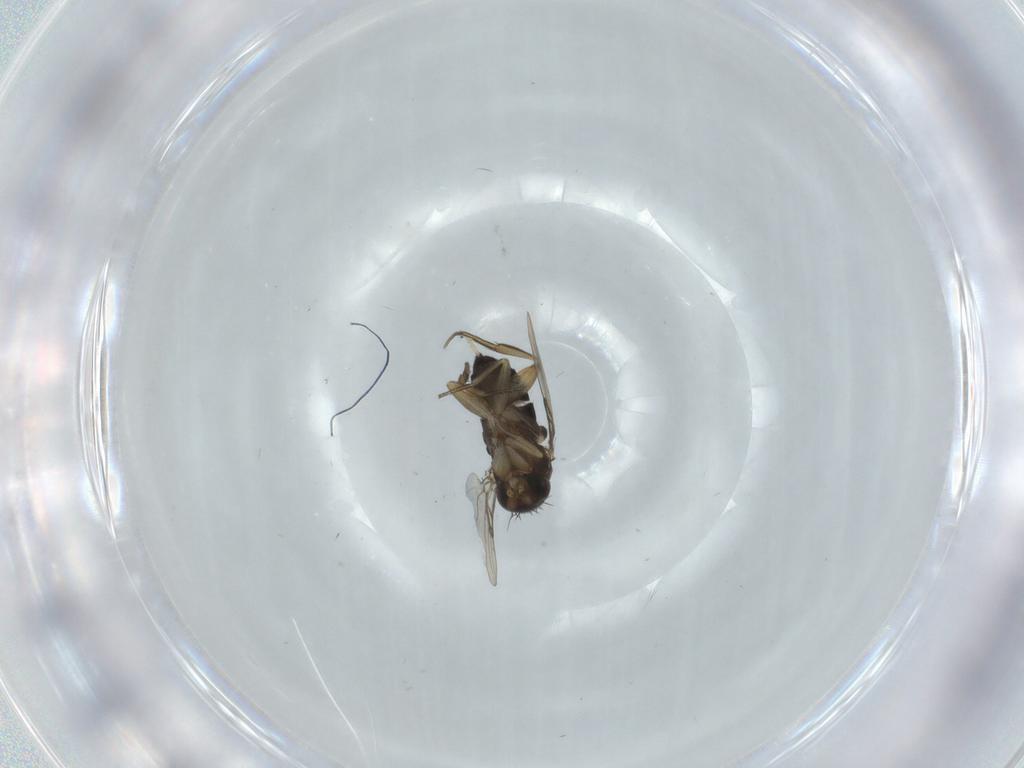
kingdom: Animalia
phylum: Arthropoda
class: Insecta
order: Diptera
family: Phoridae
